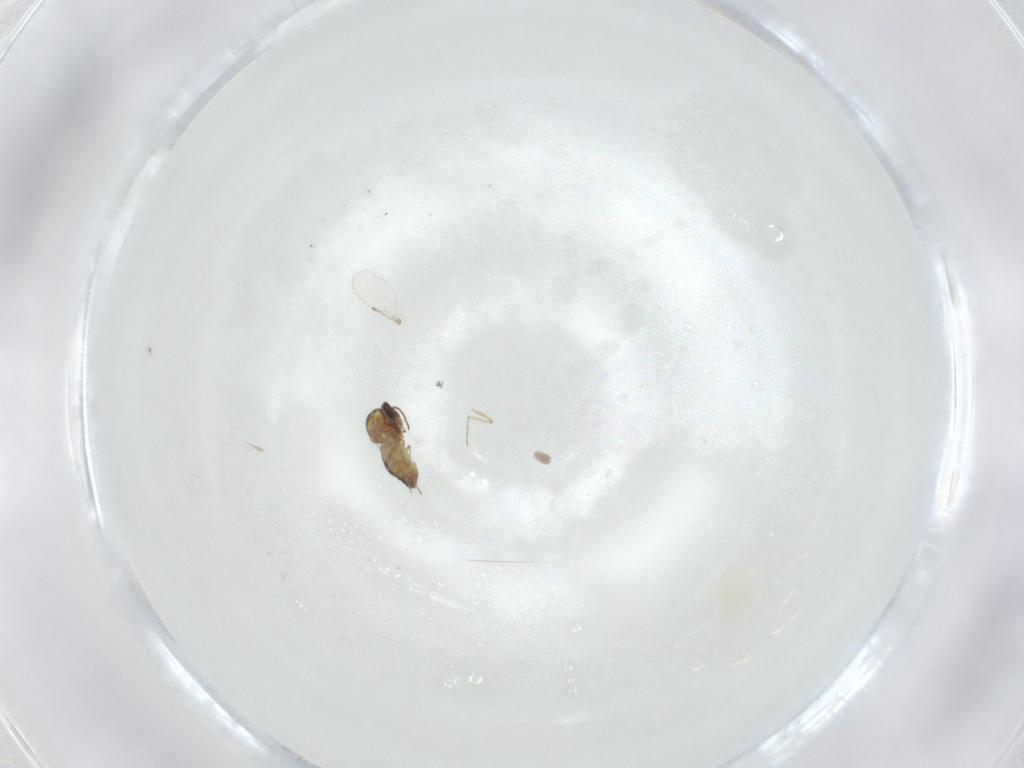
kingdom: Animalia
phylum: Arthropoda
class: Insecta
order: Diptera
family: Ceratopogonidae
